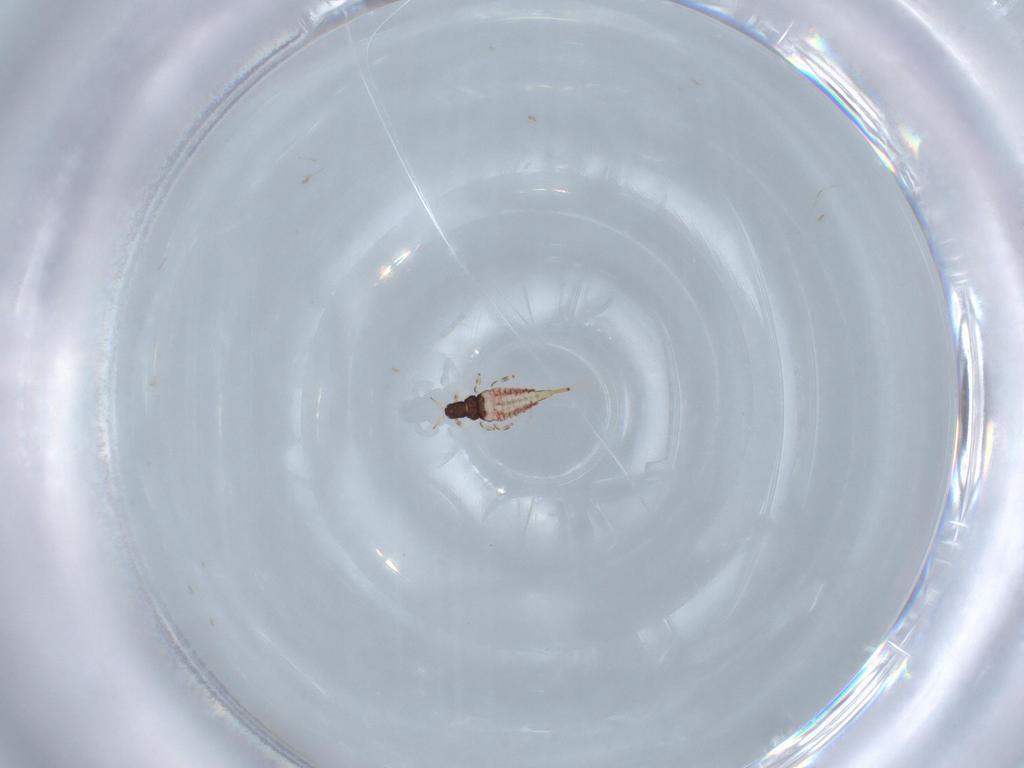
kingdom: Animalia
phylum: Arthropoda
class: Insecta
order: Thysanoptera
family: Phlaeothripidae
